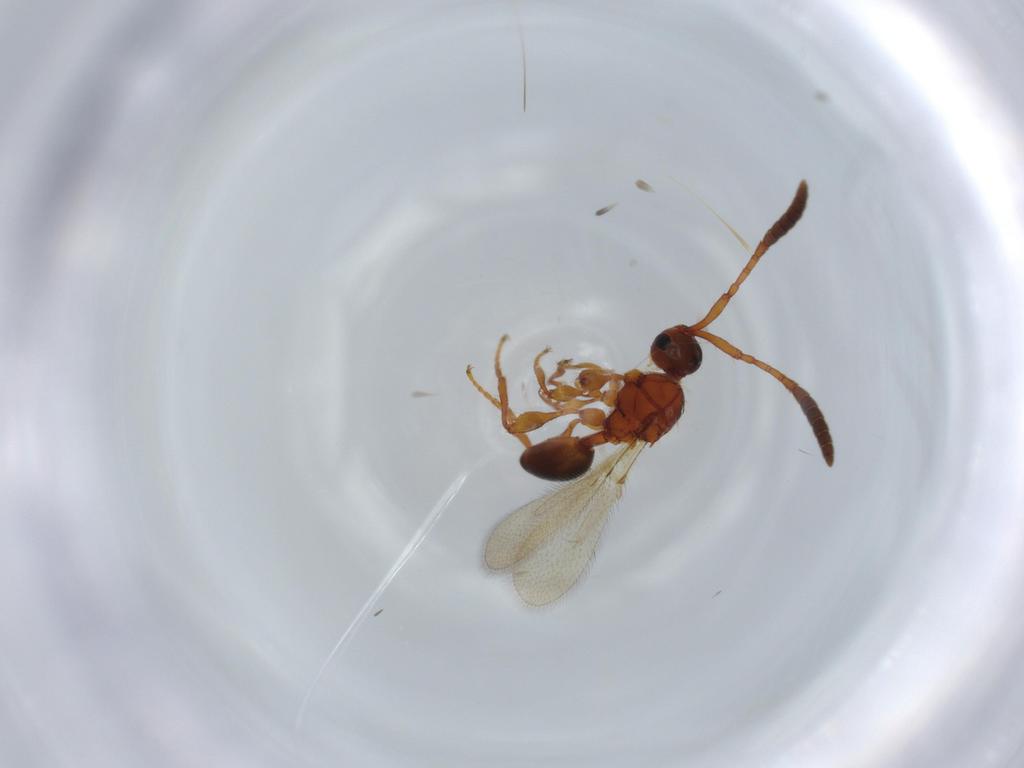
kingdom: Animalia
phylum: Arthropoda
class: Insecta
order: Hymenoptera
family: Diapriidae
